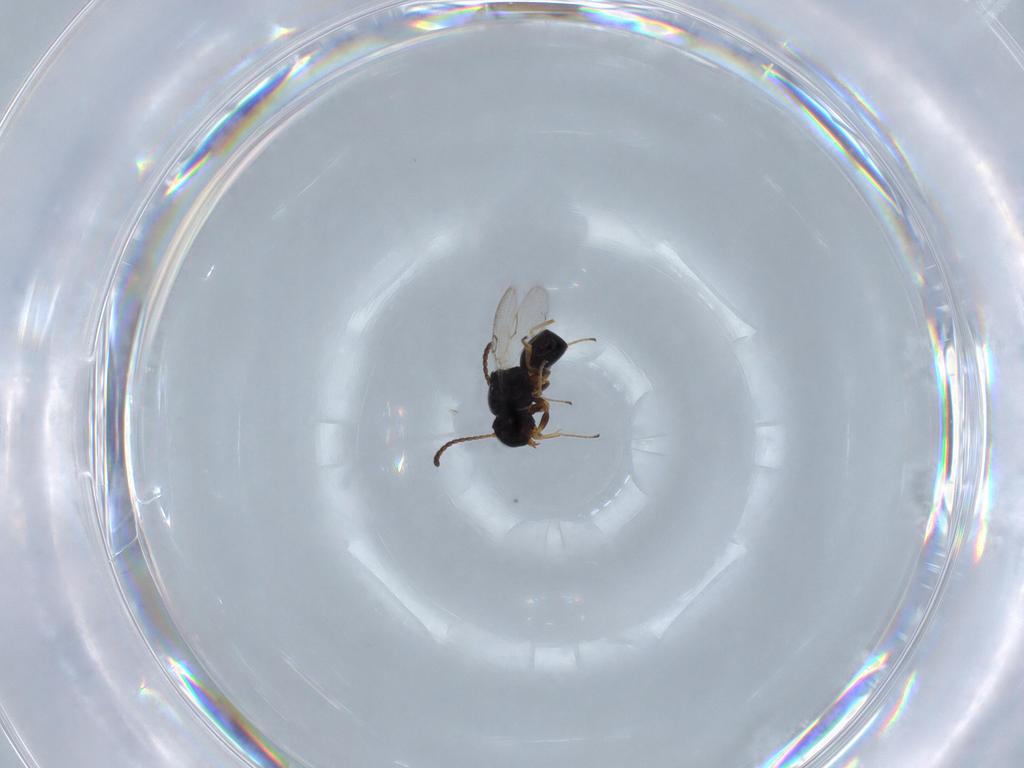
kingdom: Animalia
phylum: Arthropoda
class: Insecta
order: Hymenoptera
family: Figitidae
